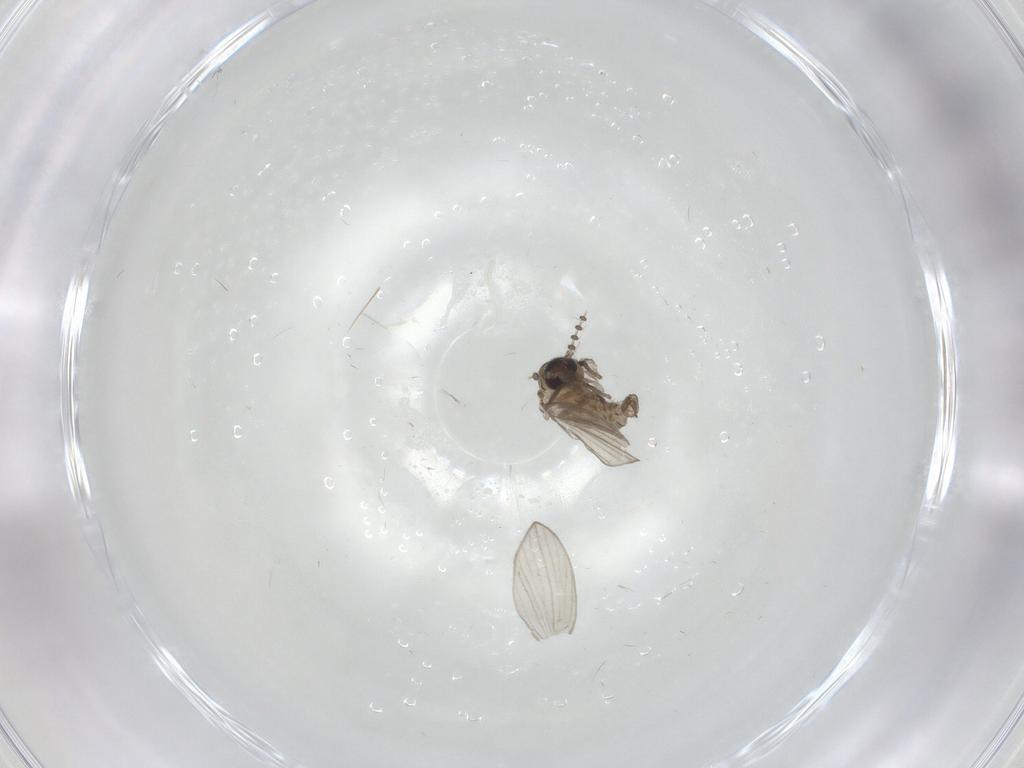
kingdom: Animalia
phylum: Arthropoda
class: Insecta
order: Diptera
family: Psychodidae
